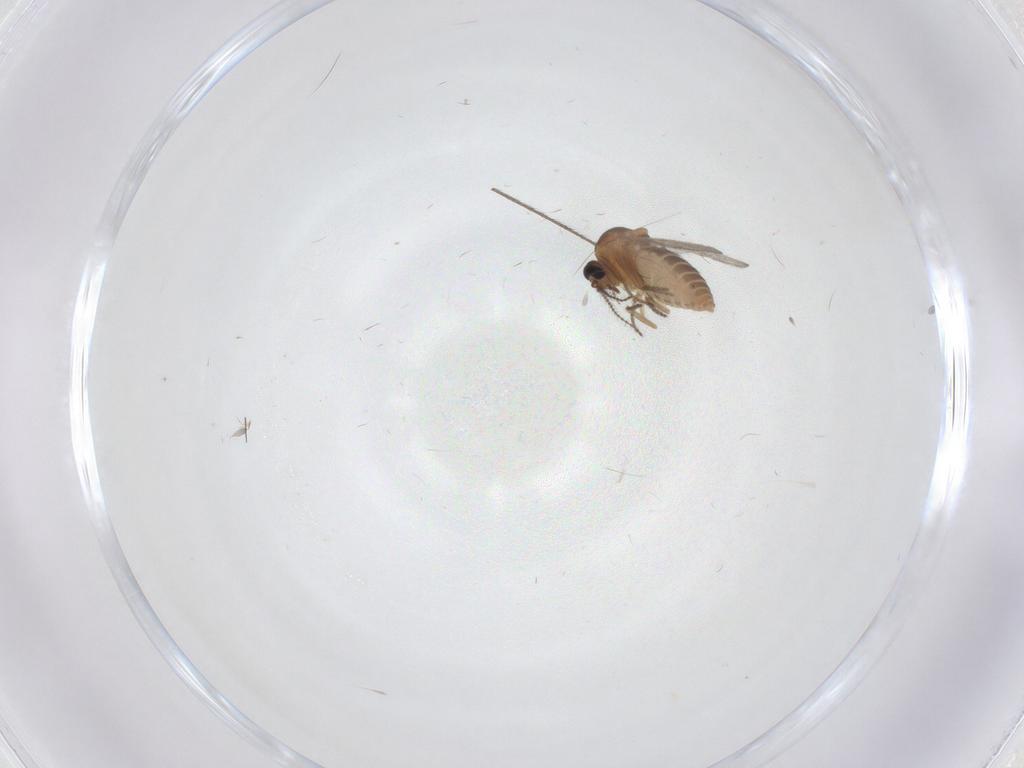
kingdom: Animalia
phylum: Arthropoda
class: Insecta
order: Diptera
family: Ceratopogonidae
